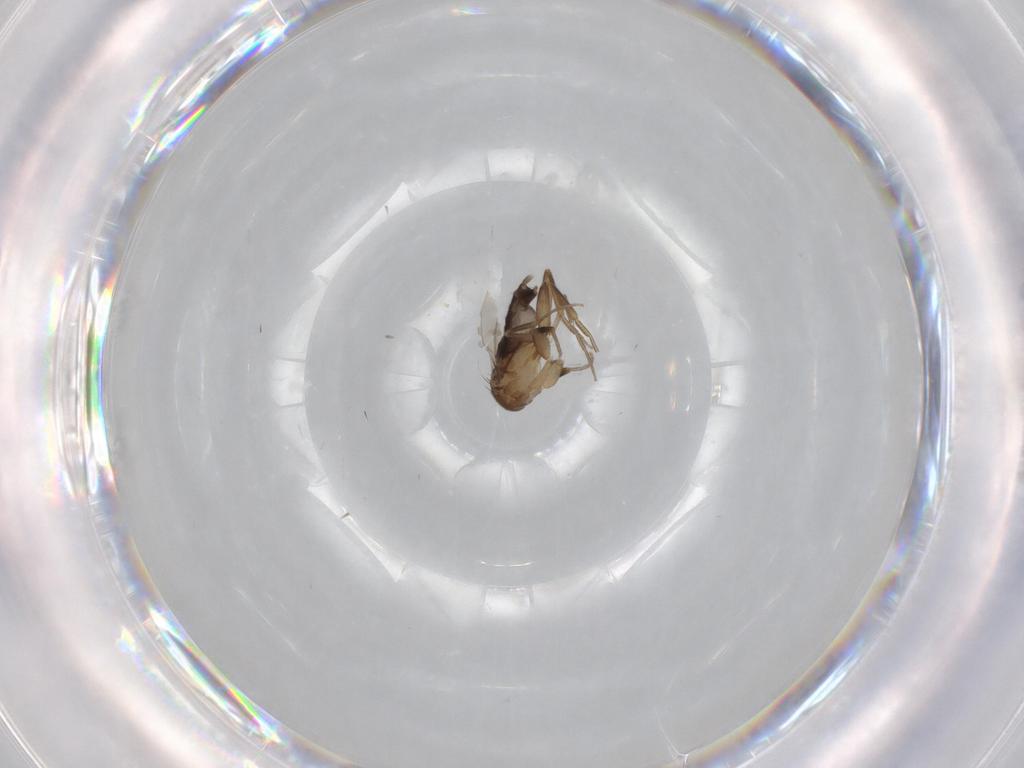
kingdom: Animalia
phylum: Arthropoda
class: Insecta
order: Diptera
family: Phoridae
